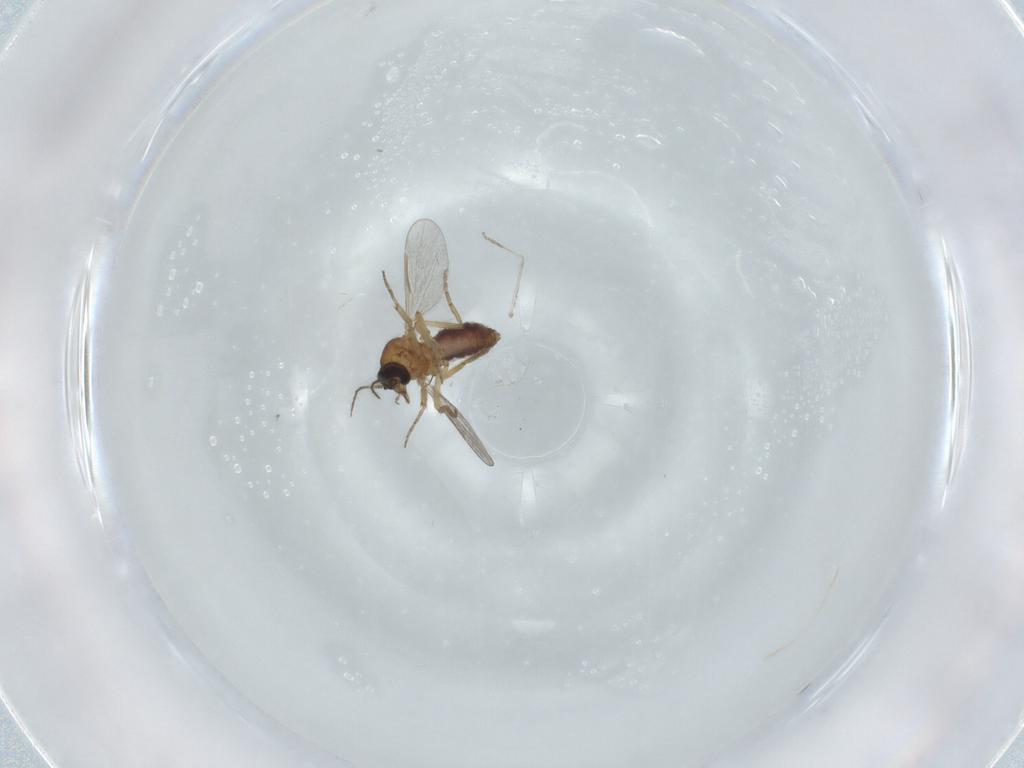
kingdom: Animalia
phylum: Arthropoda
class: Insecta
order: Diptera
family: Ceratopogonidae
